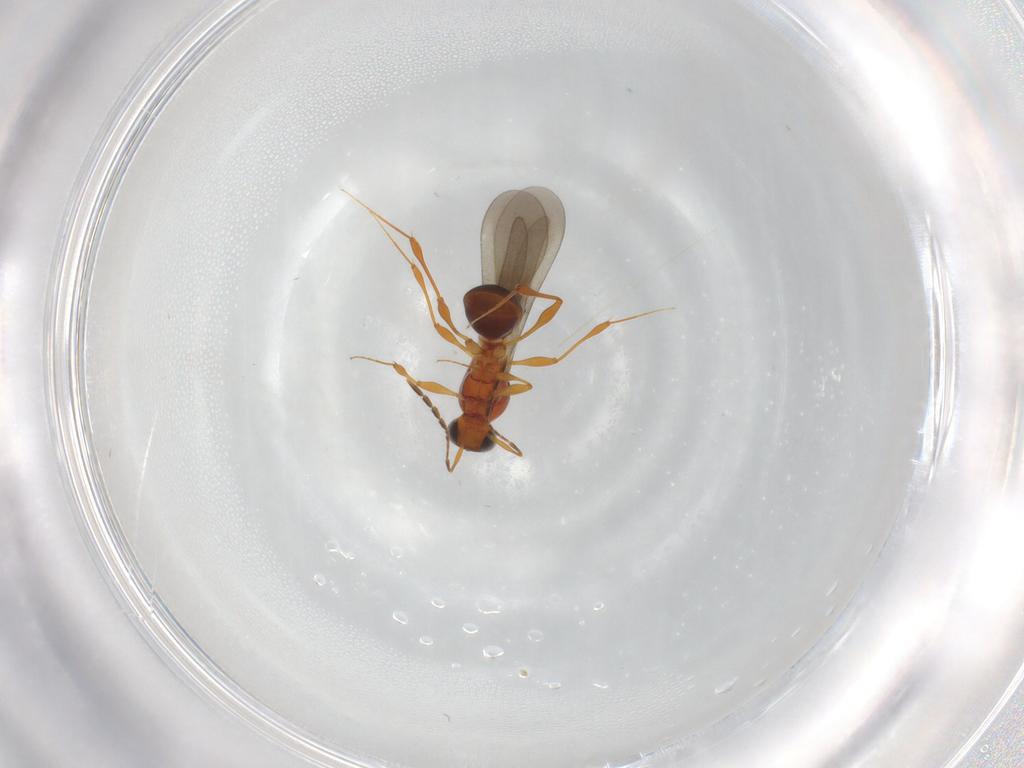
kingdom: Animalia
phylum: Arthropoda
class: Insecta
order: Hymenoptera
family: Platygastridae
